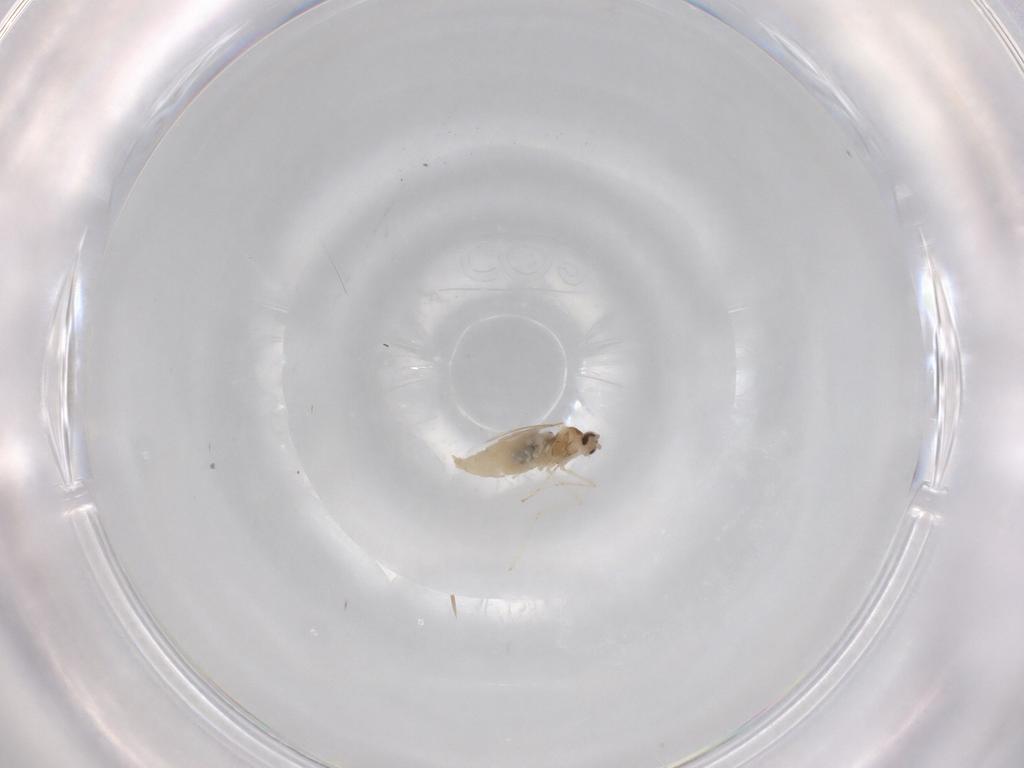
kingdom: Animalia
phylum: Arthropoda
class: Insecta
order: Diptera
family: Cecidomyiidae
